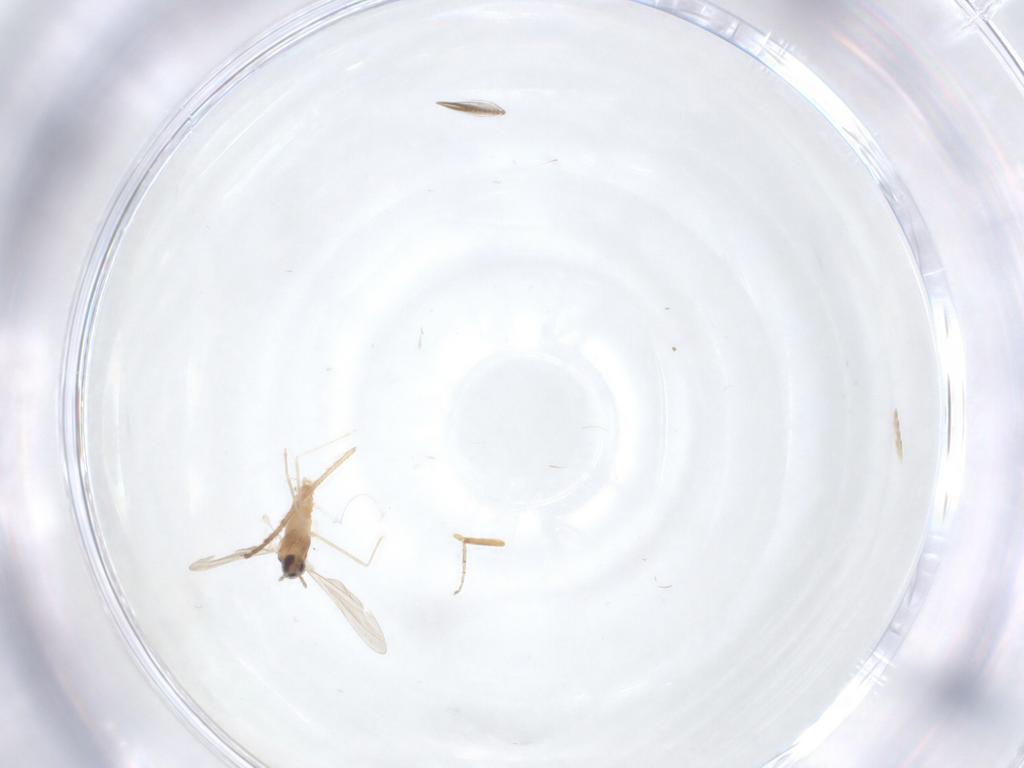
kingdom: Animalia
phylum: Arthropoda
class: Insecta
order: Diptera
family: Cecidomyiidae
